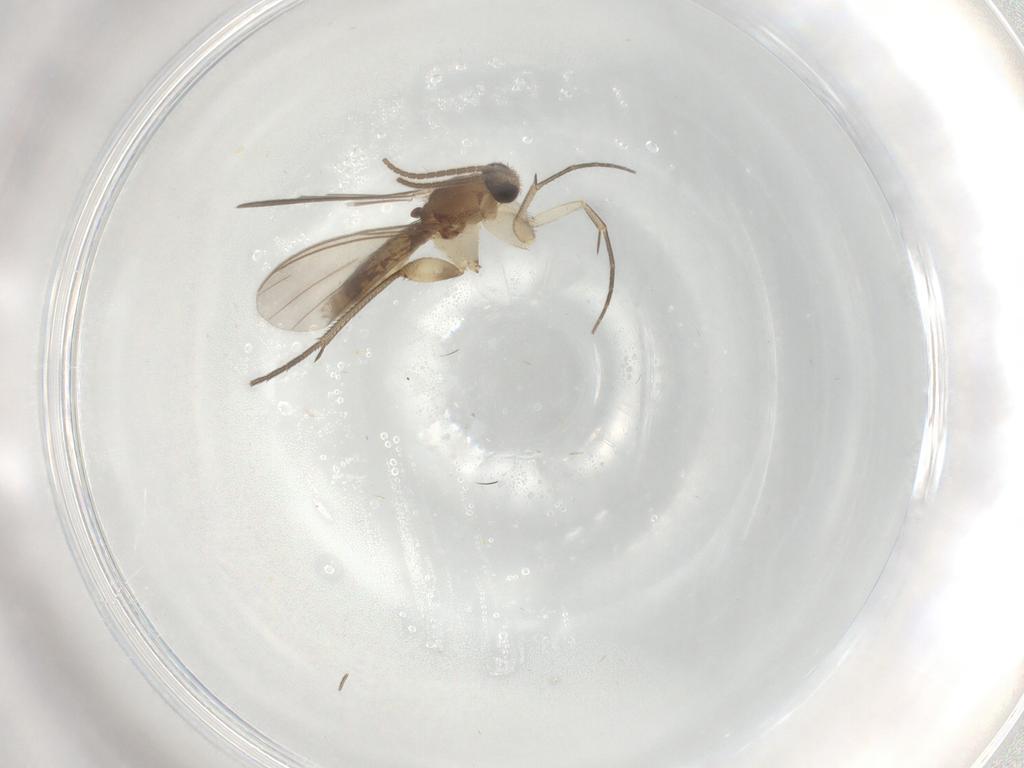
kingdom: Animalia
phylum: Arthropoda
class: Insecta
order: Diptera
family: Mycetophilidae
